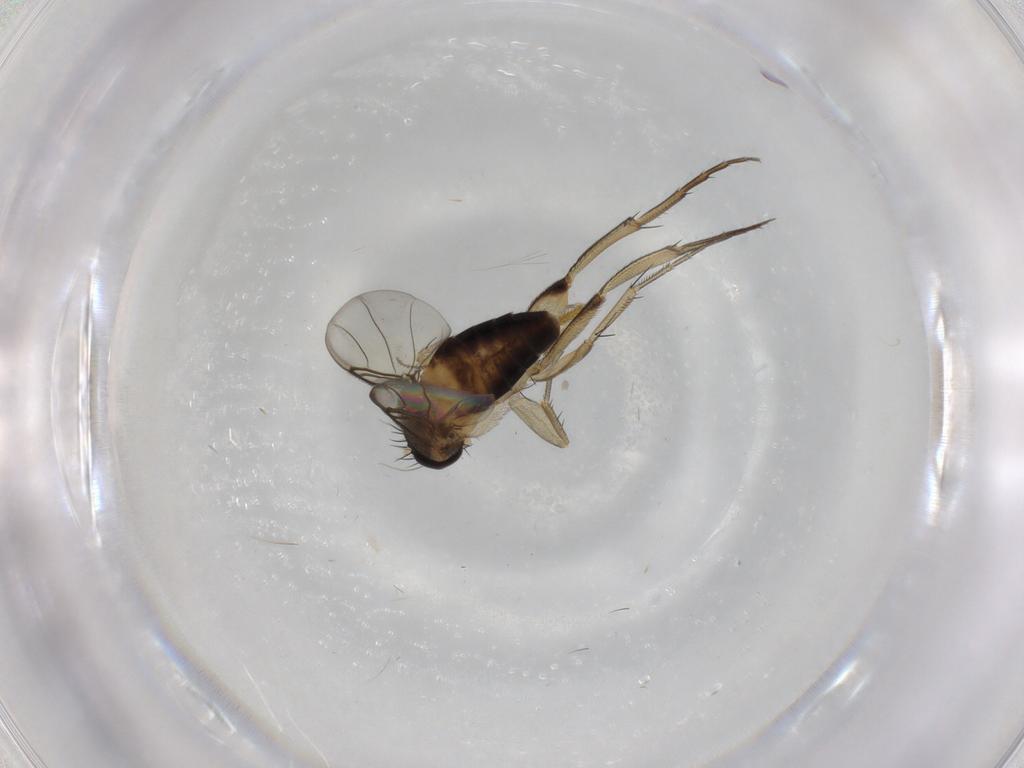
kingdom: Animalia
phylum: Arthropoda
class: Insecta
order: Diptera
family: Phoridae
